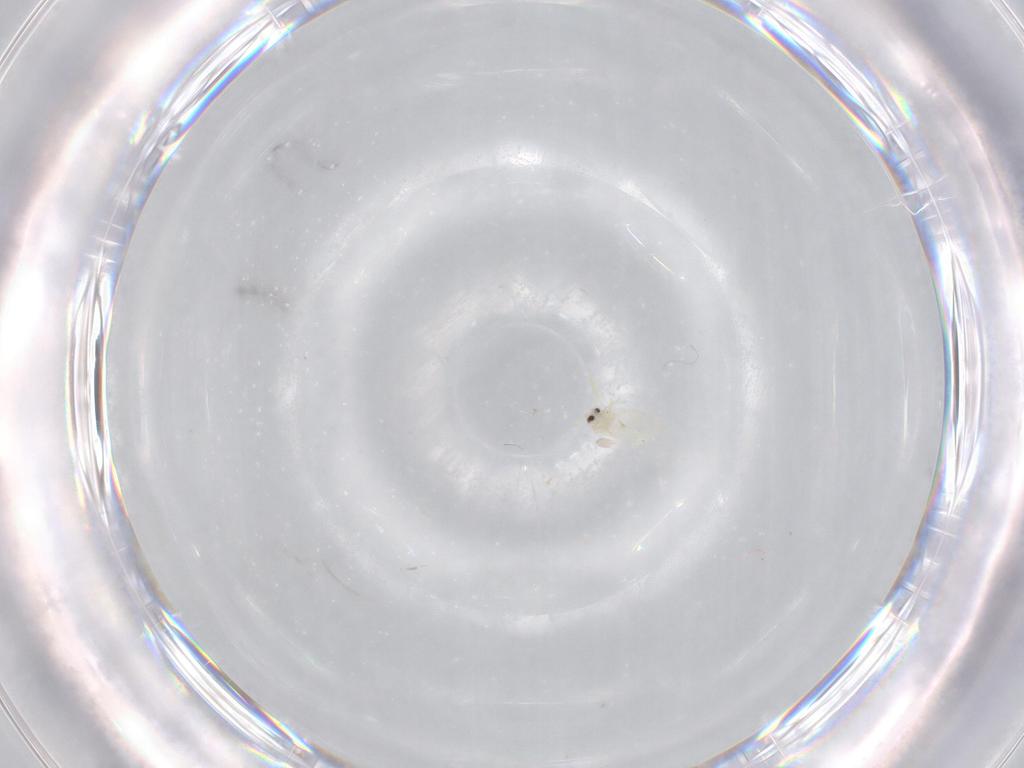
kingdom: Animalia
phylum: Arthropoda
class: Insecta
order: Hemiptera
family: Aleyrodidae
